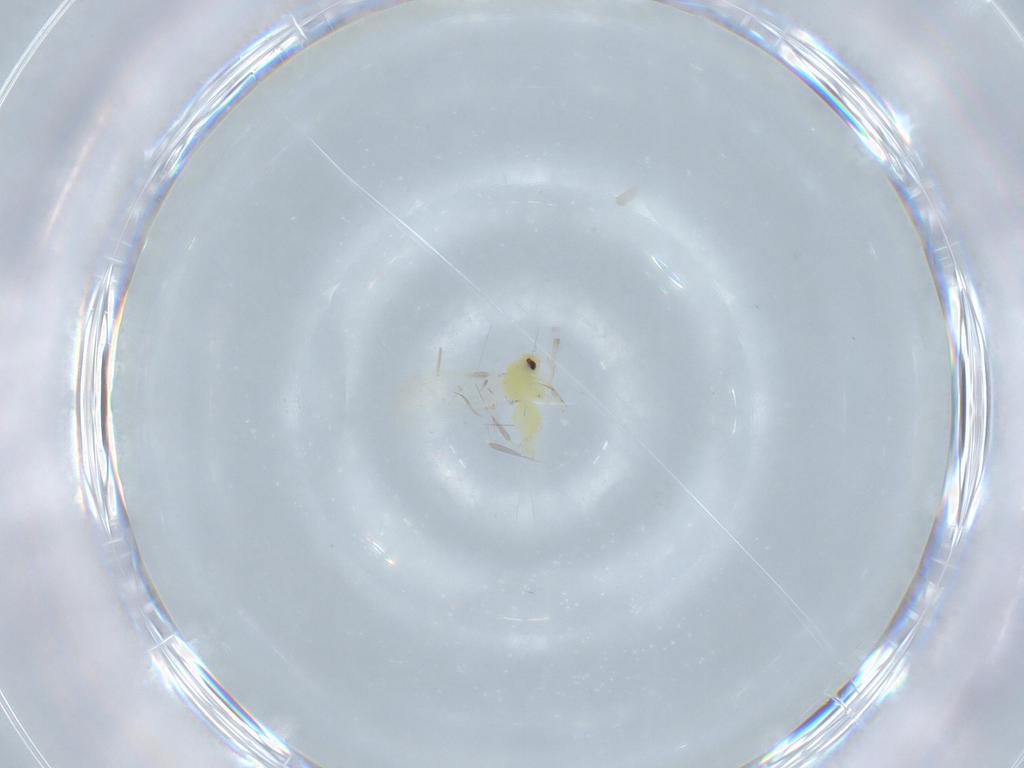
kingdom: Animalia
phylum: Arthropoda
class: Insecta
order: Hemiptera
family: Aleyrodidae
